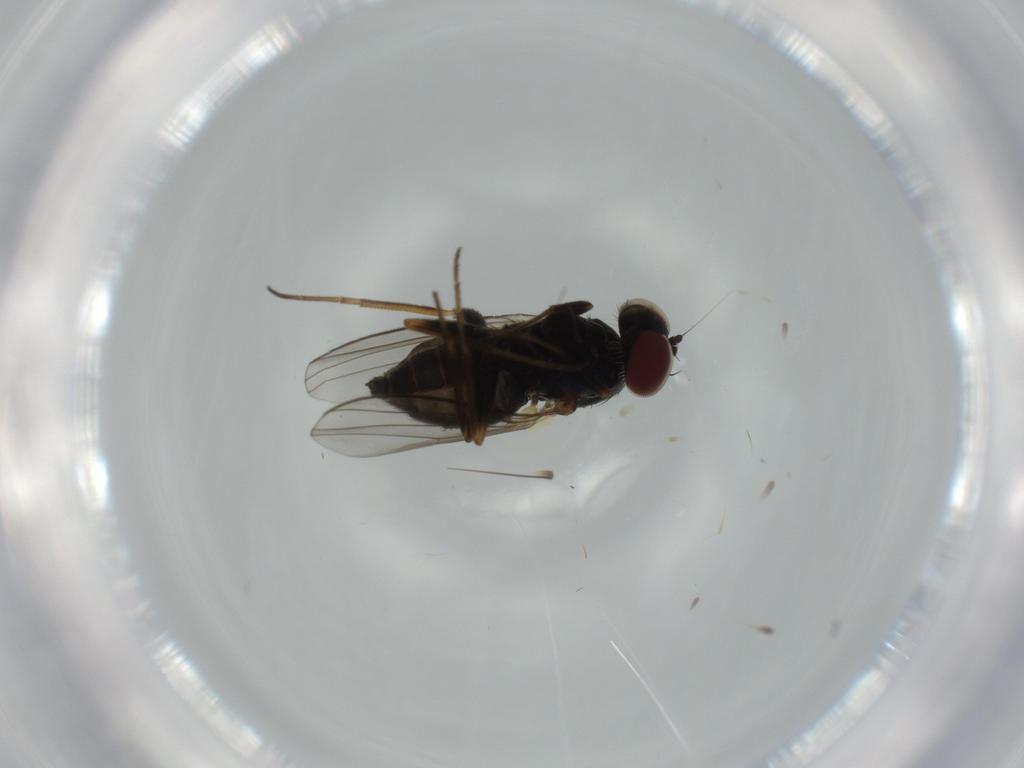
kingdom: Animalia
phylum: Arthropoda
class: Insecta
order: Diptera
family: Dolichopodidae
